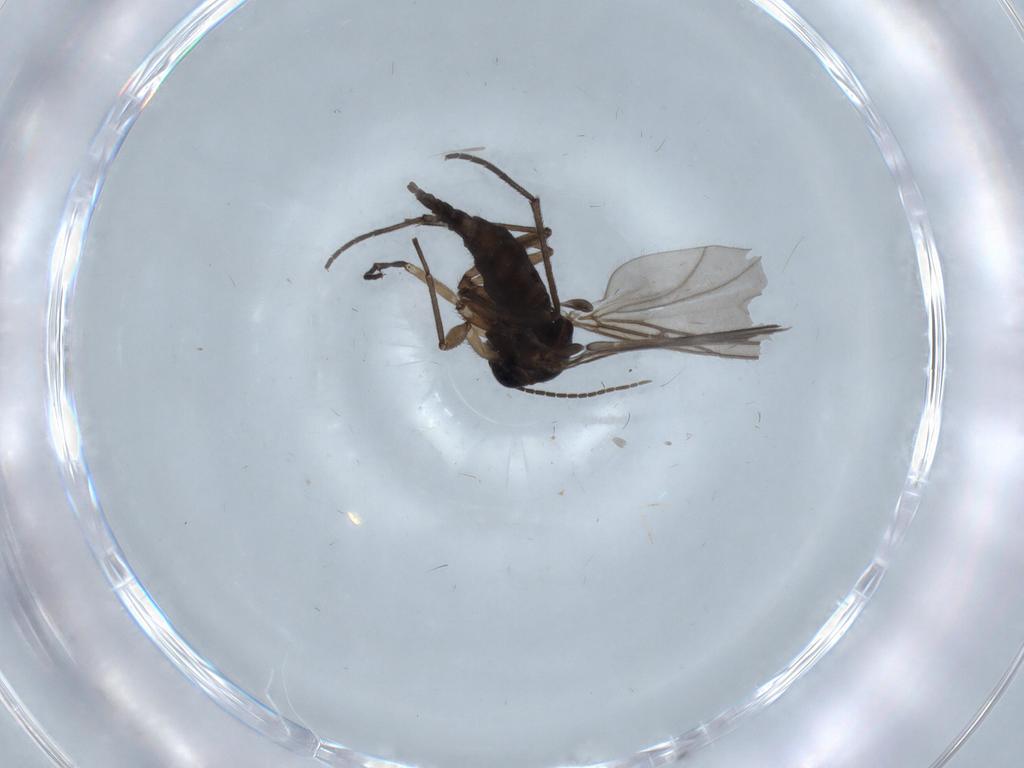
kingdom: Animalia
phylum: Arthropoda
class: Insecta
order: Diptera
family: Sciaridae
